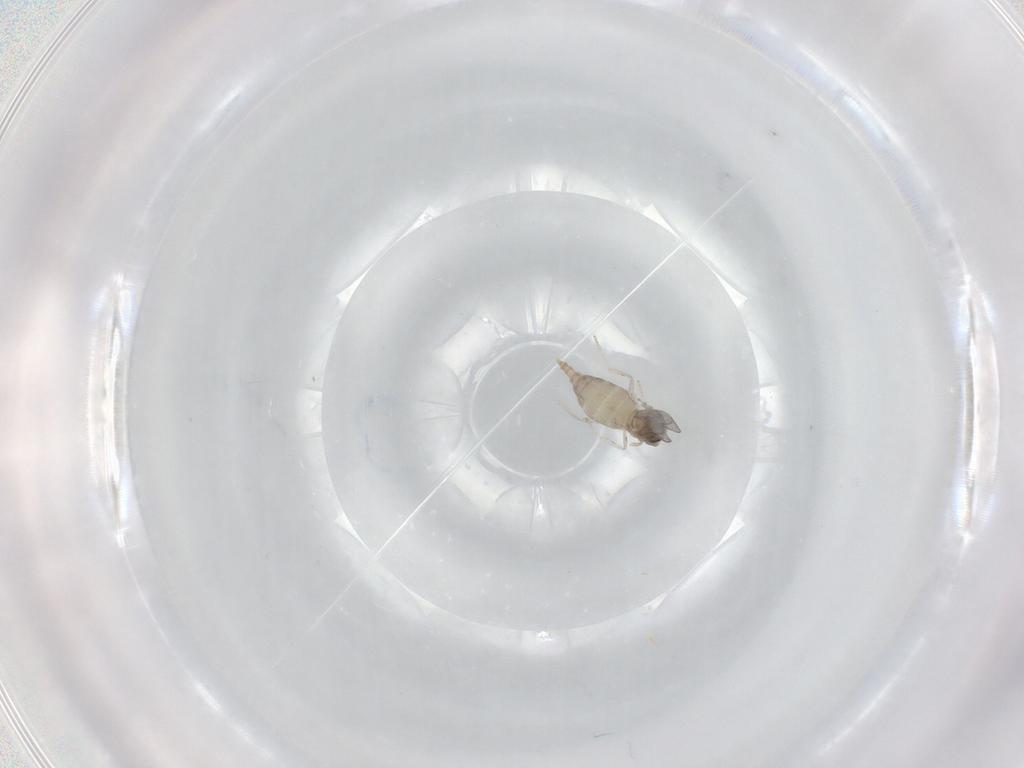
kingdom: Animalia
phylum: Arthropoda
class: Insecta
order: Diptera
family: Cecidomyiidae
